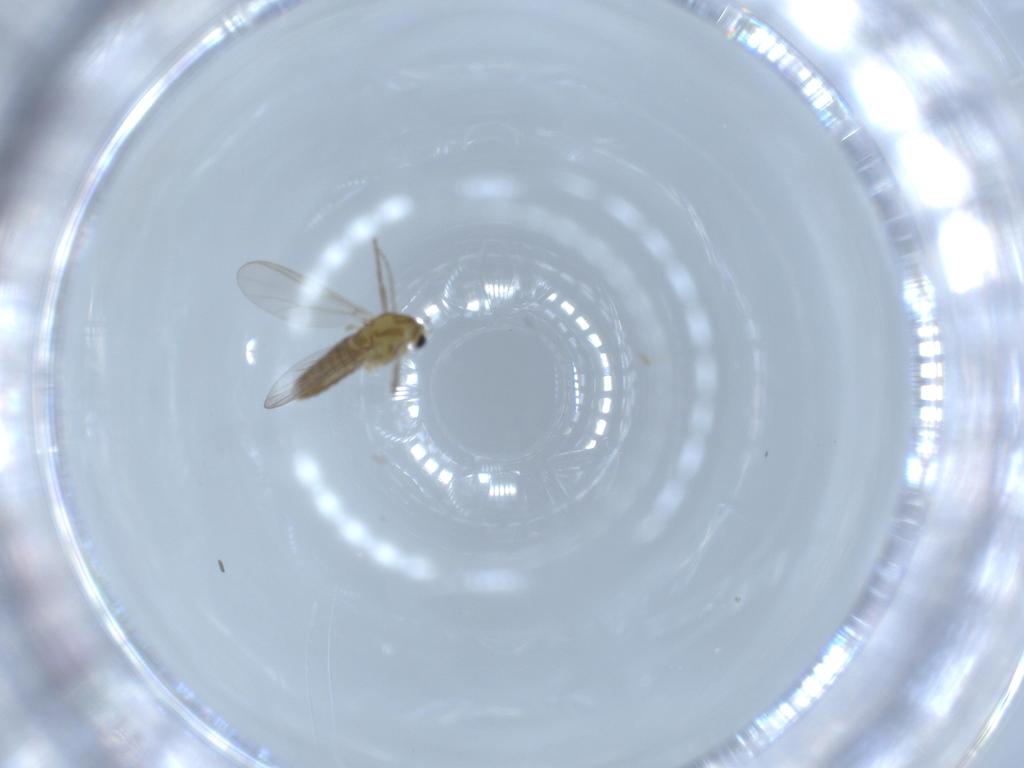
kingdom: Animalia
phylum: Arthropoda
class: Insecta
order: Diptera
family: Chironomidae
